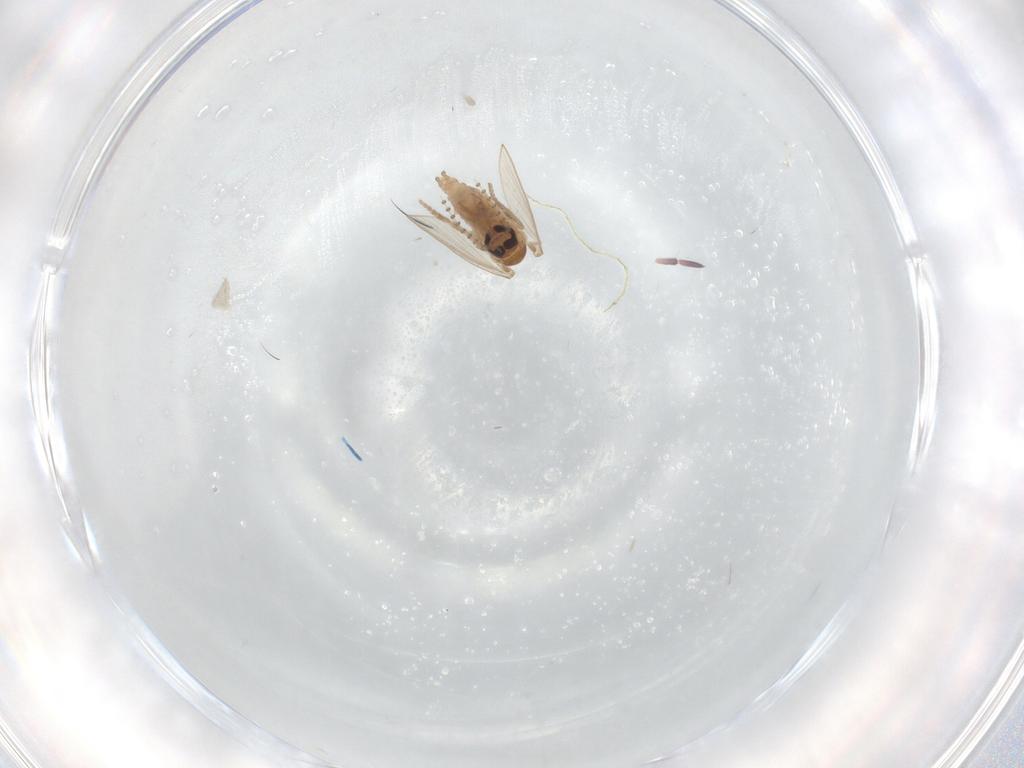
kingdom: Animalia
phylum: Arthropoda
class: Insecta
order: Diptera
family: Psychodidae
